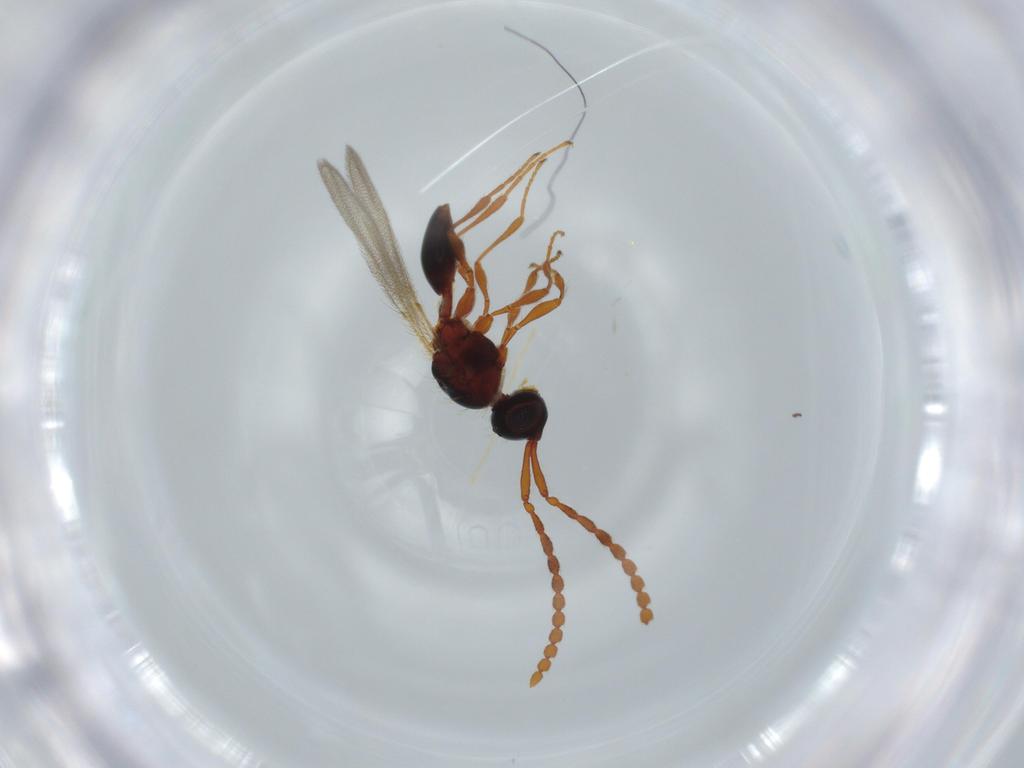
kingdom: Animalia
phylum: Arthropoda
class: Insecta
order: Hymenoptera
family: Diapriidae
